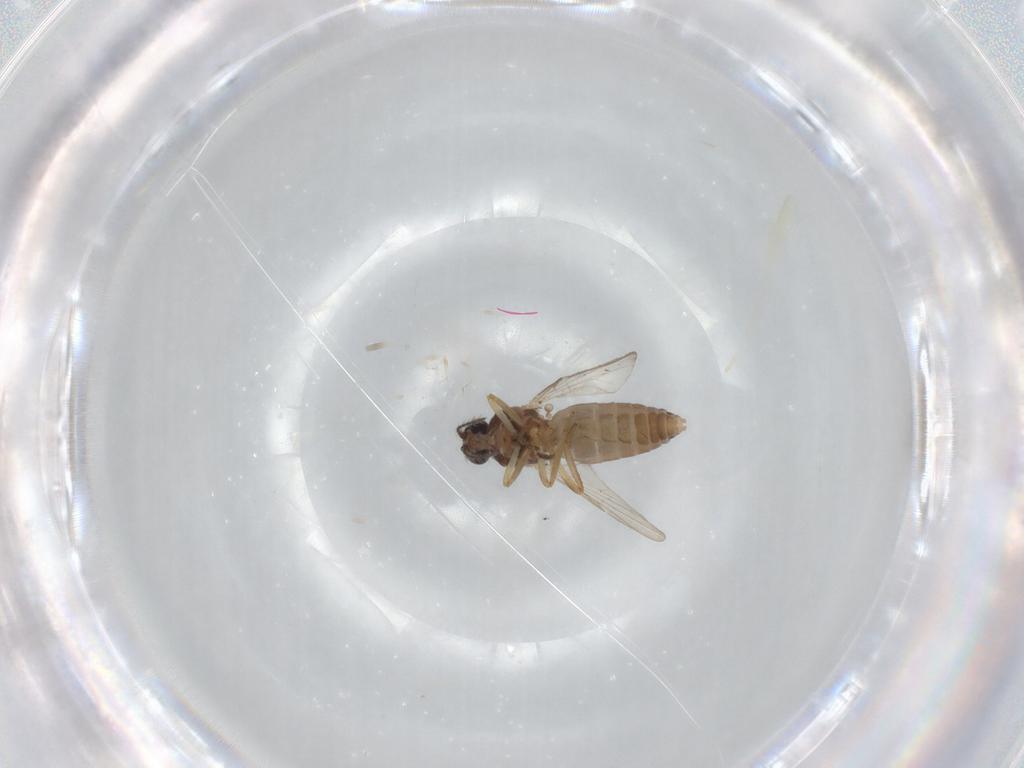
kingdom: Animalia
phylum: Arthropoda
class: Insecta
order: Diptera
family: Ceratopogonidae
